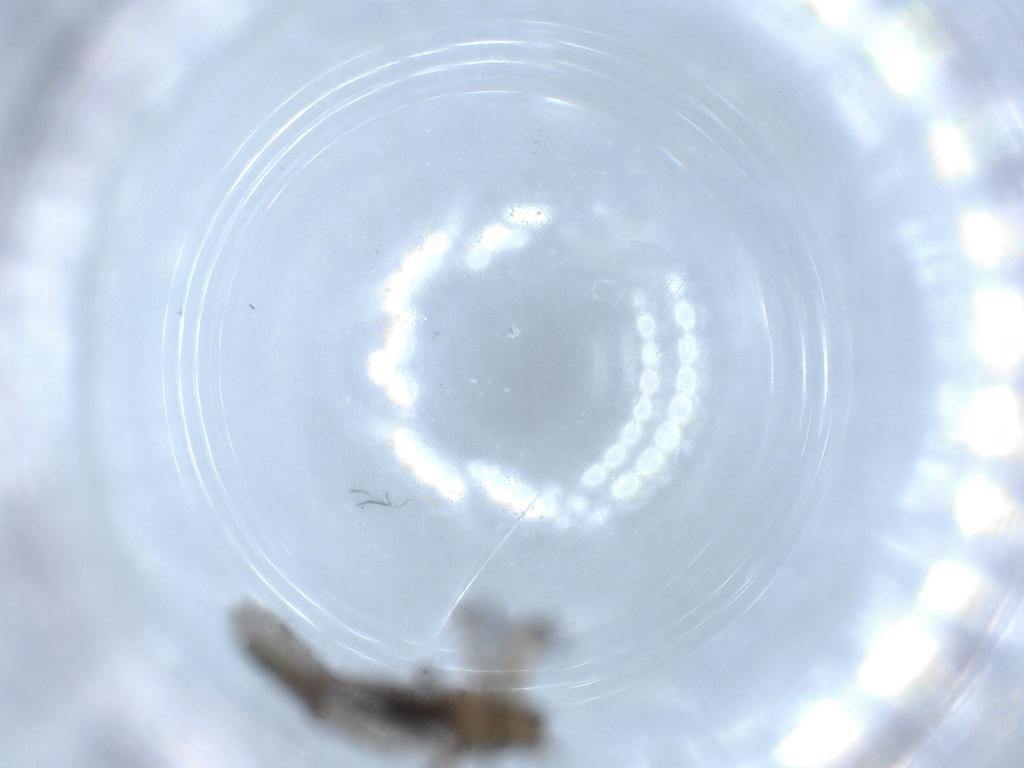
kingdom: Animalia
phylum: Arthropoda
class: Insecta
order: Diptera
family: Sciaridae
